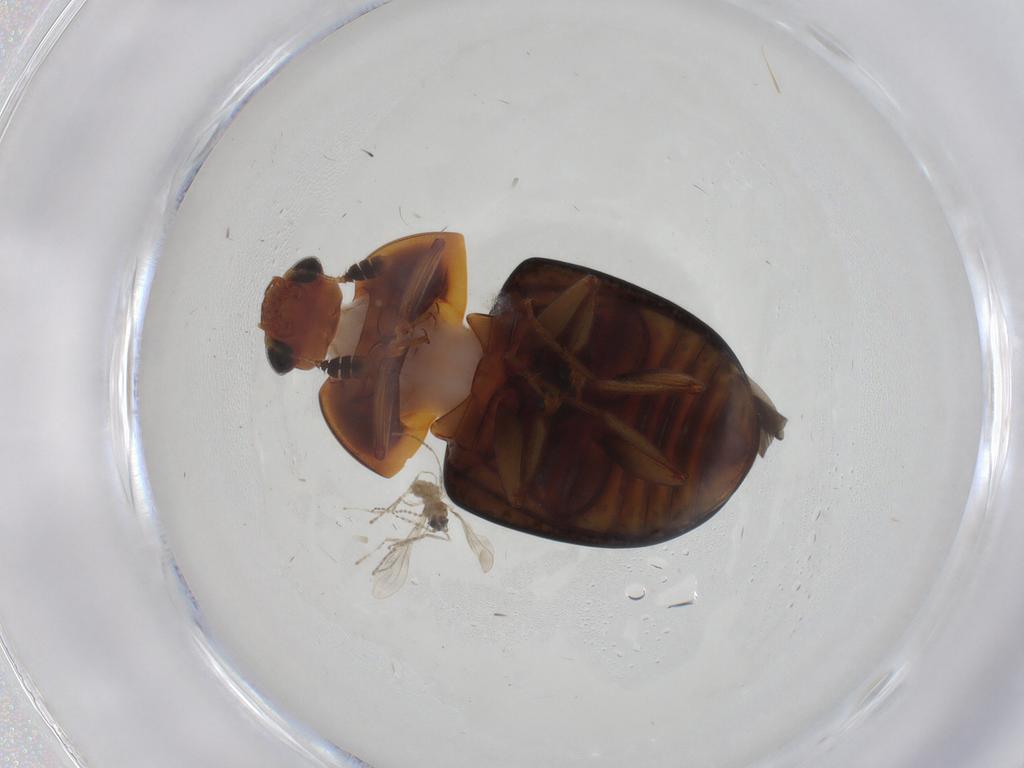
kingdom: Animalia
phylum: Arthropoda
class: Insecta
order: Coleoptera
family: Nitidulidae
